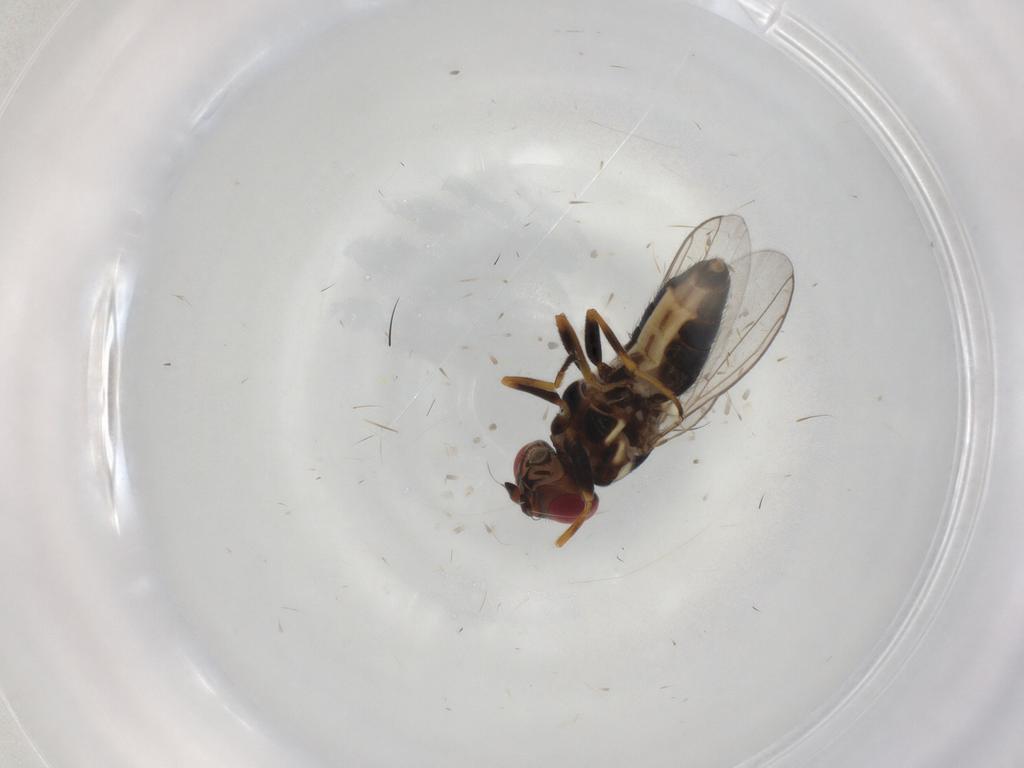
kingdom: Animalia
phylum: Arthropoda
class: Insecta
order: Diptera
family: Chloropidae
